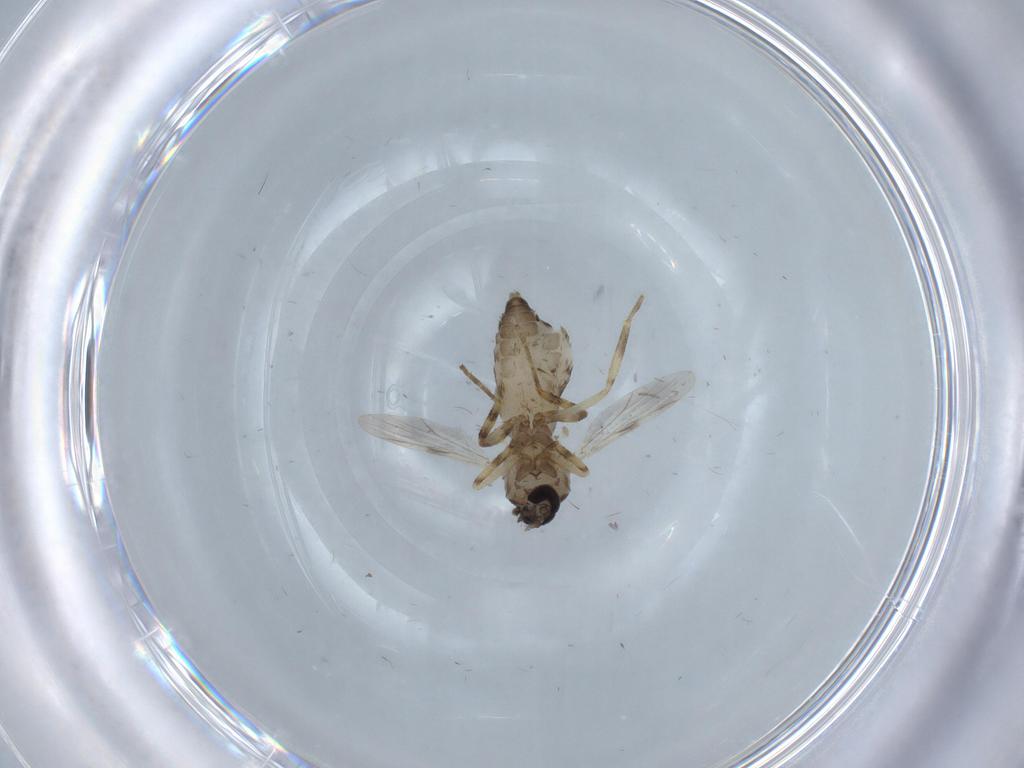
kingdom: Animalia
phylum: Arthropoda
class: Insecta
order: Diptera
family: Ceratopogonidae
